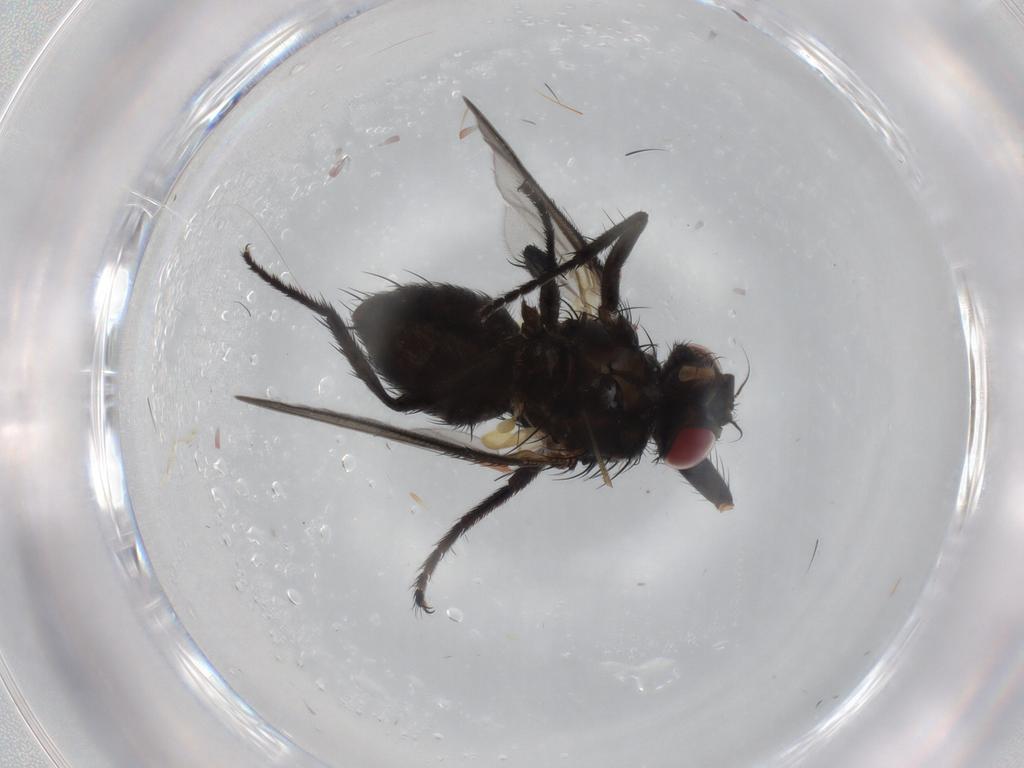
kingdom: Animalia
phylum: Arthropoda
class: Insecta
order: Diptera
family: Fannia
